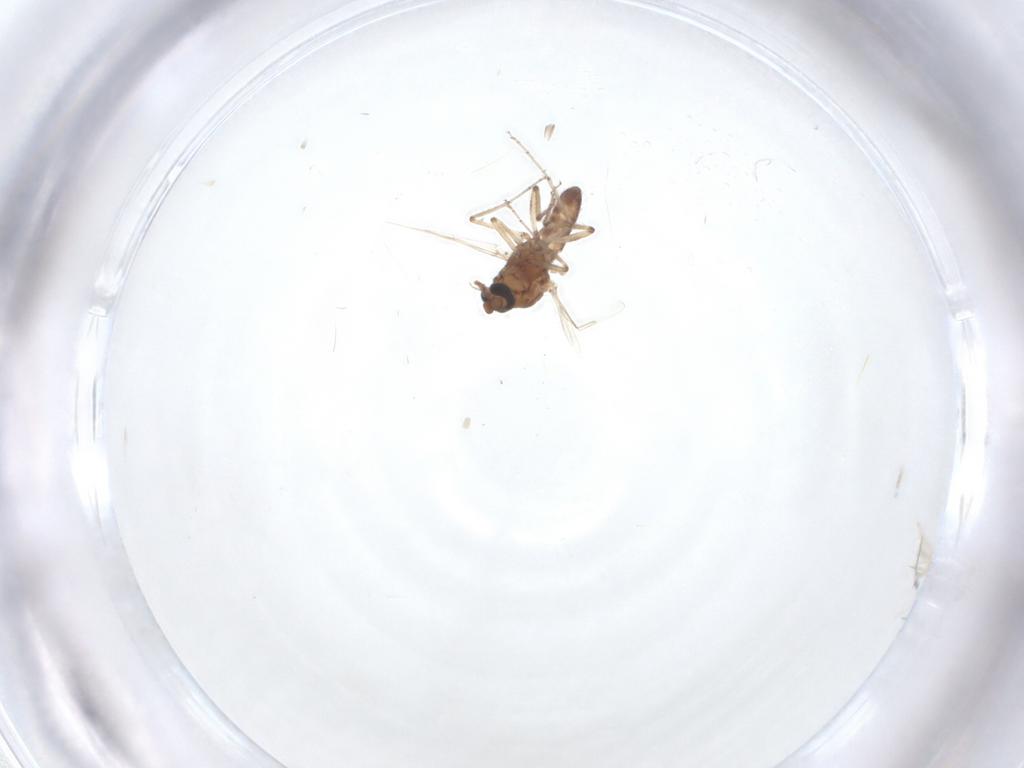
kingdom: Animalia
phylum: Arthropoda
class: Insecta
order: Diptera
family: Ceratopogonidae
